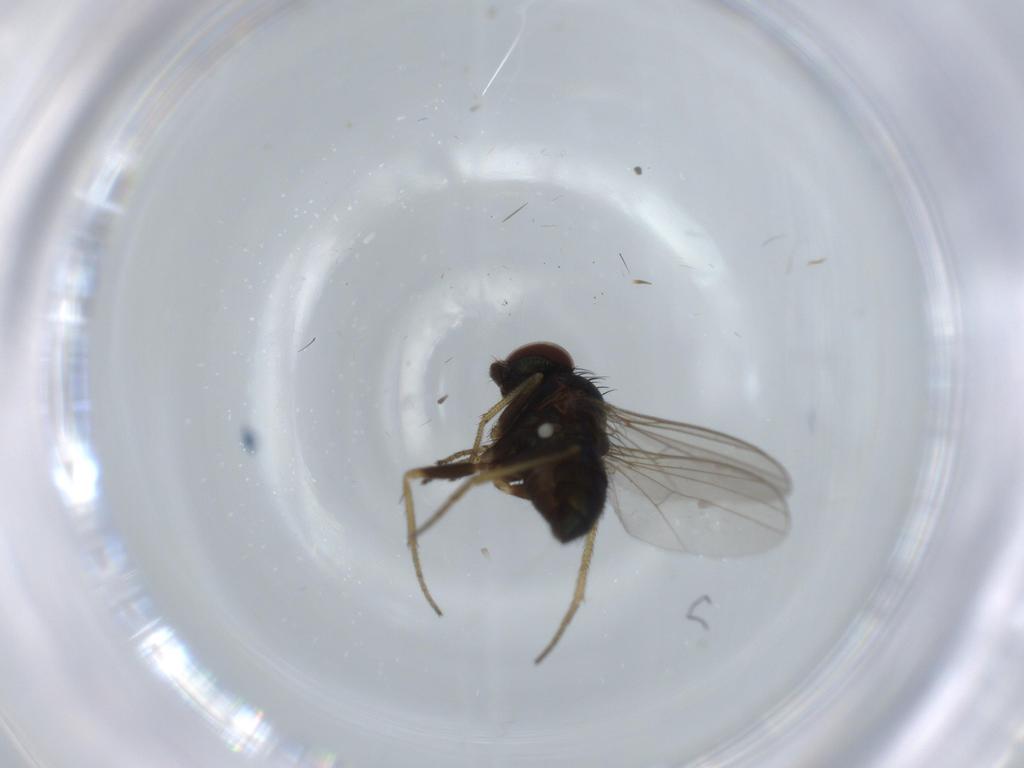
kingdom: Animalia
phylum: Arthropoda
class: Insecta
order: Diptera
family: Dolichopodidae
